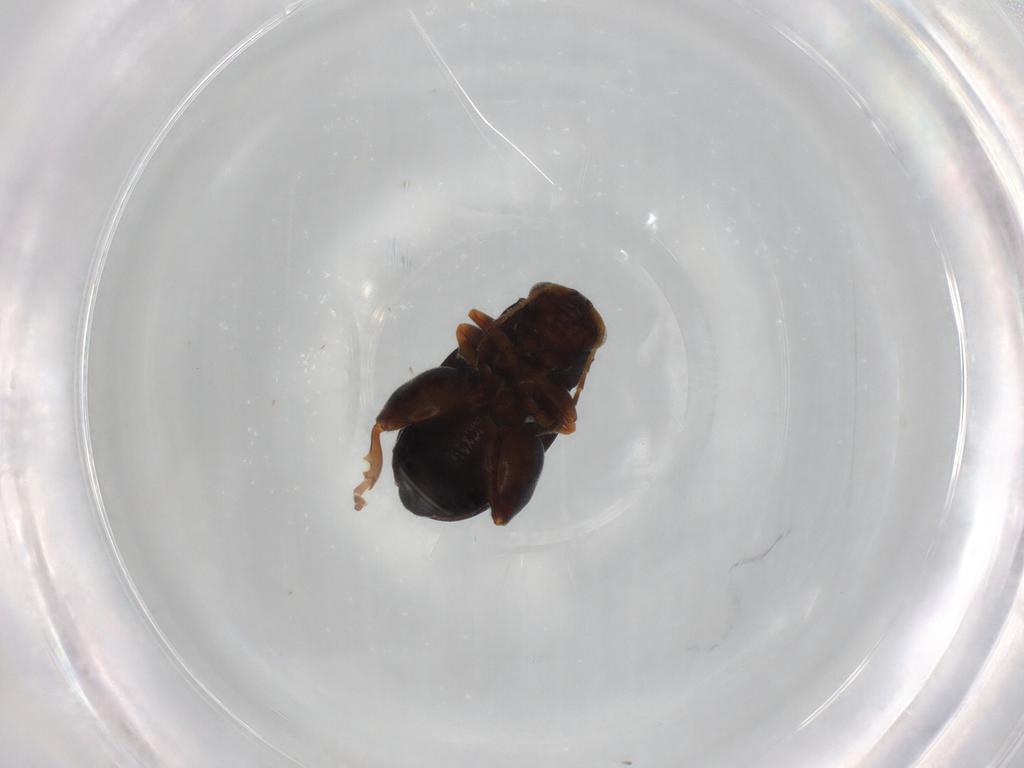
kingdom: Animalia
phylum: Arthropoda
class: Insecta
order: Coleoptera
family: Chrysomelidae
